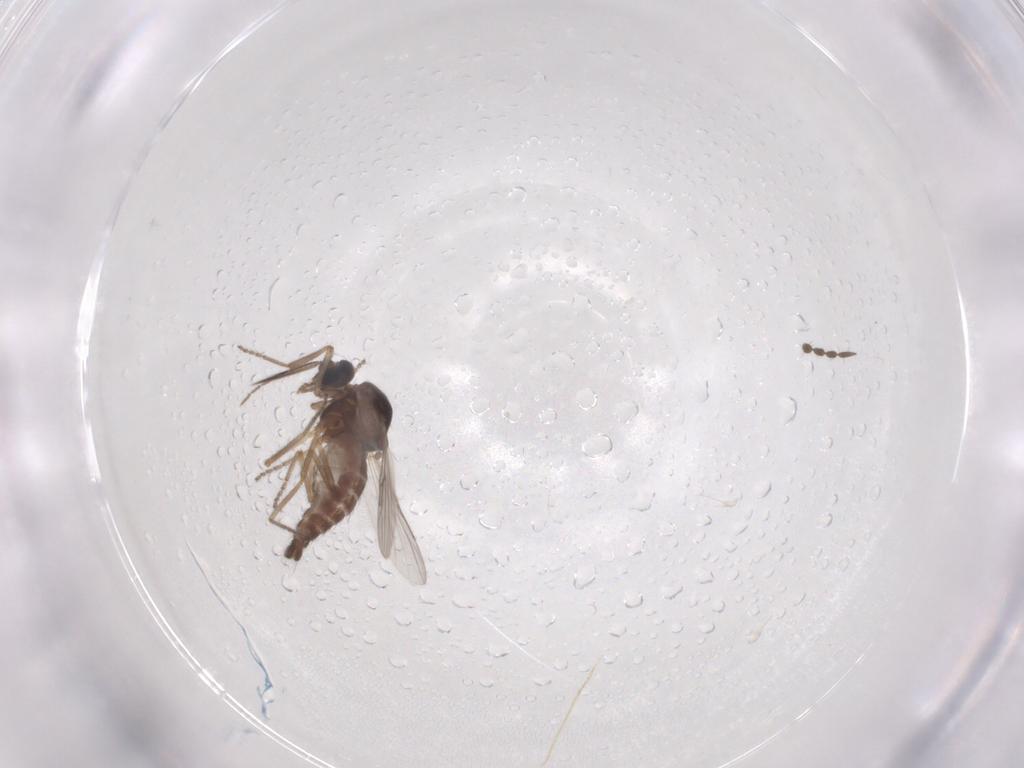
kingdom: Animalia
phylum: Arthropoda
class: Insecta
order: Diptera
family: Ceratopogonidae
